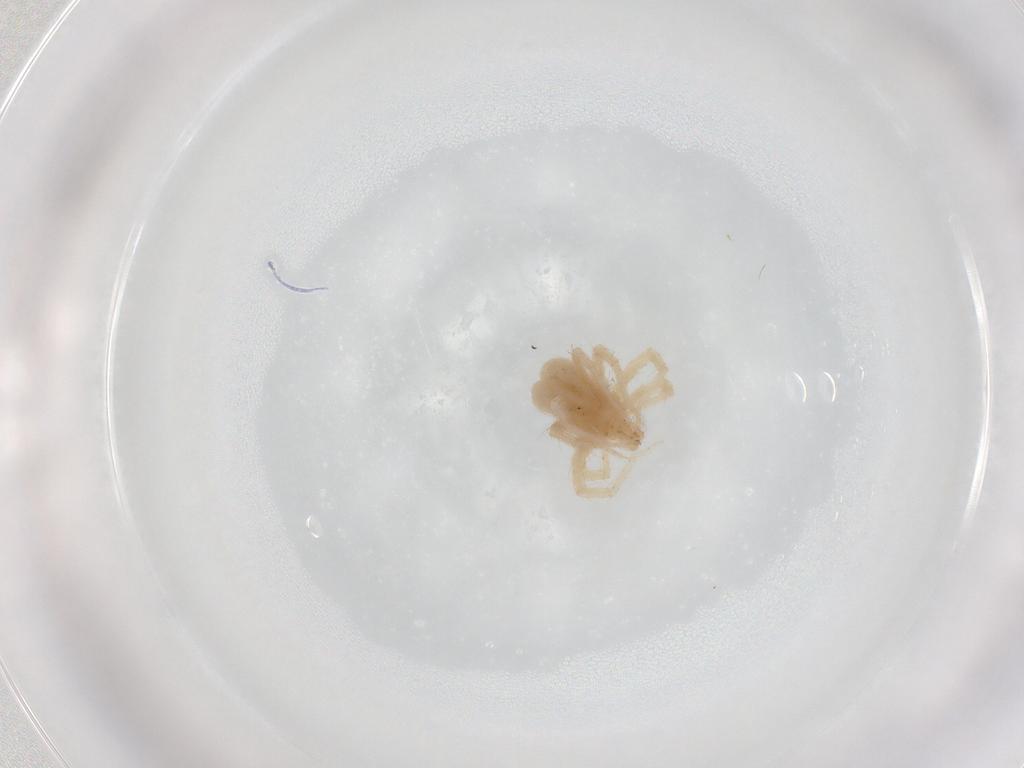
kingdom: Animalia
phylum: Arthropoda
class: Arachnida
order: Trombidiformes
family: Anystidae
